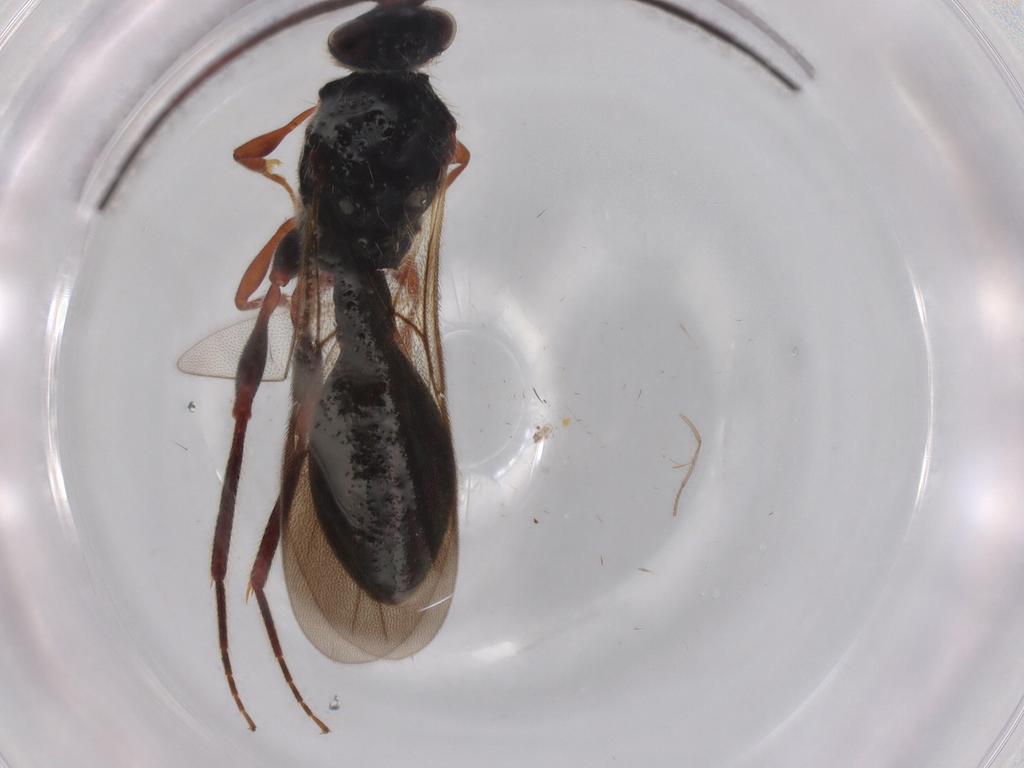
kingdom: Animalia
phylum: Arthropoda
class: Insecta
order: Hymenoptera
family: Diapriidae
